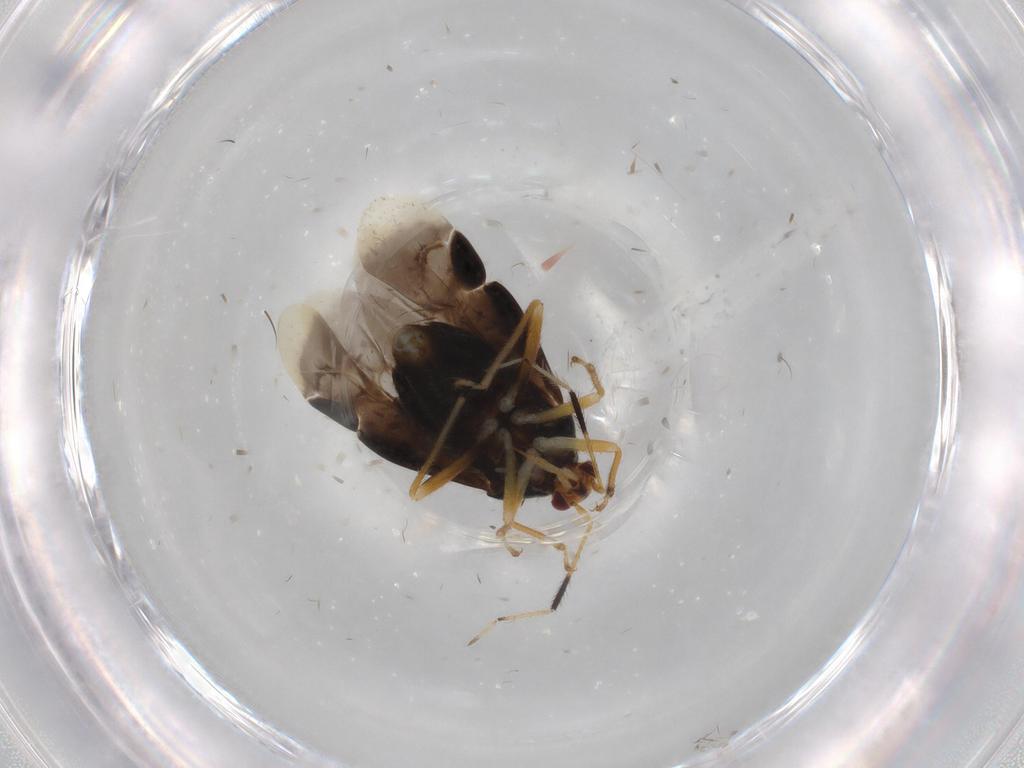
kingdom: Animalia
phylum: Arthropoda
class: Insecta
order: Hemiptera
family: Miridae
